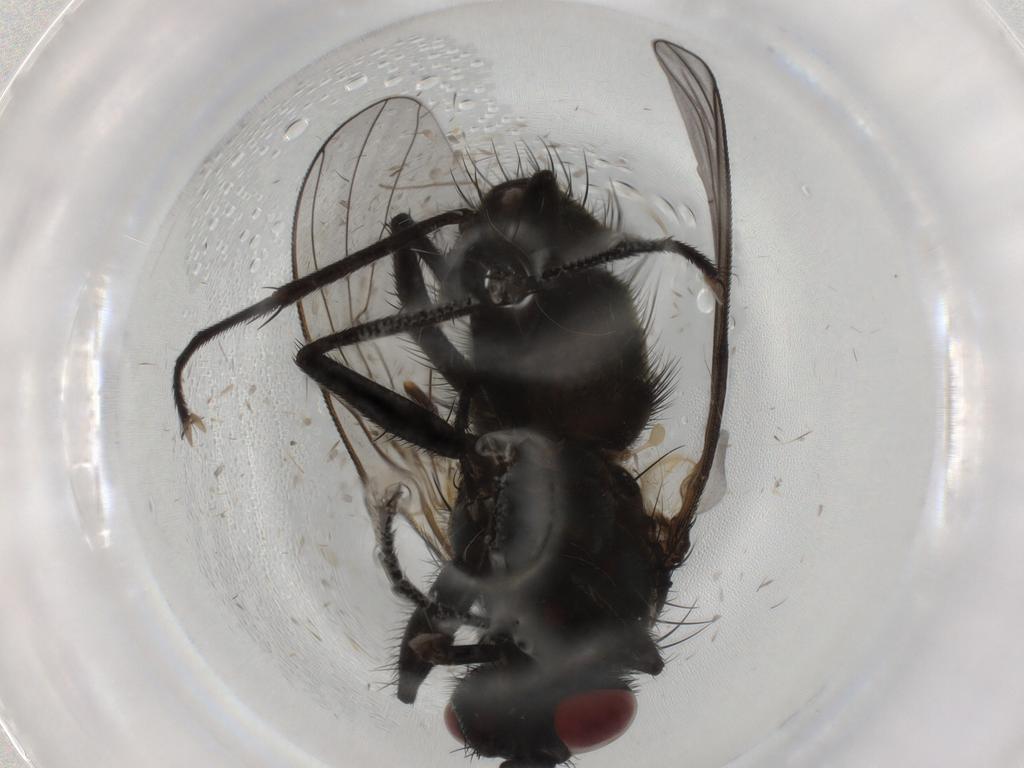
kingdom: Animalia
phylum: Arthropoda
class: Insecta
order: Diptera
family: Muscidae
